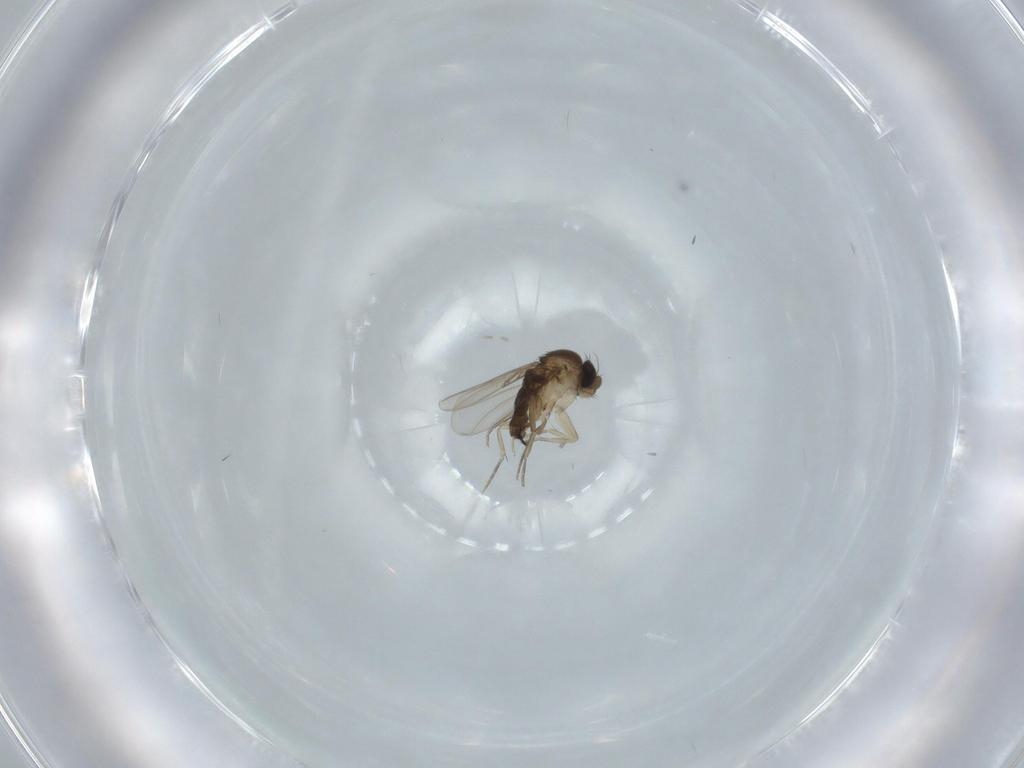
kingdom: Animalia
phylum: Arthropoda
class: Insecta
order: Diptera
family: Phoridae
